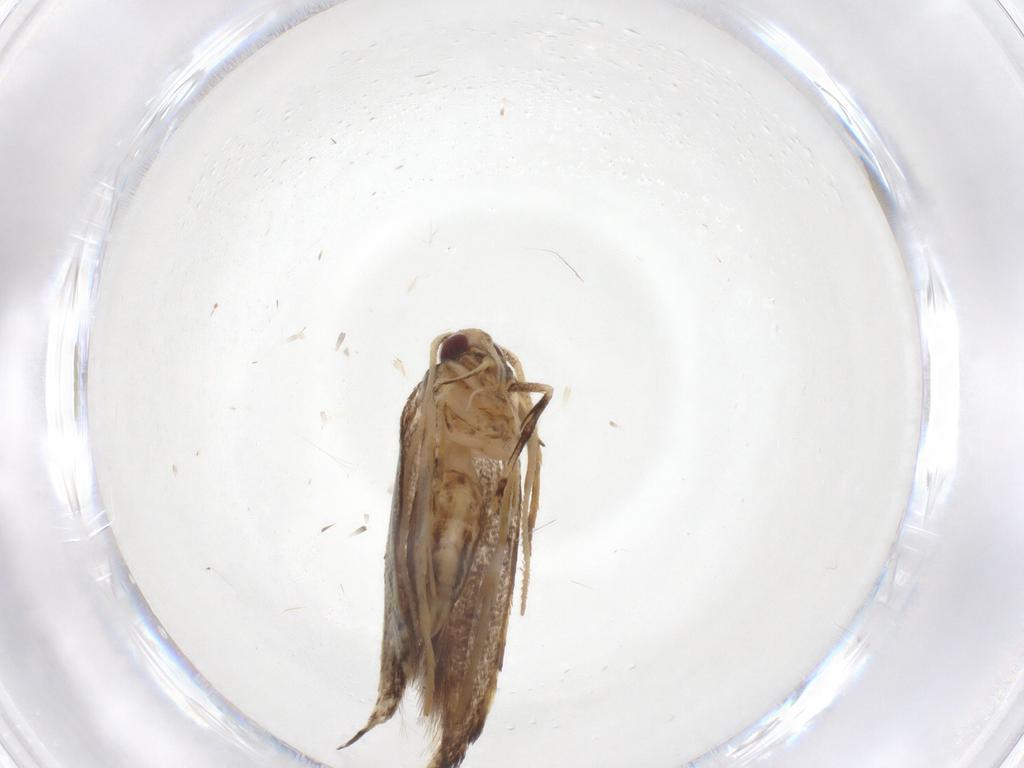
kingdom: Animalia
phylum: Arthropoda
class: Insecta
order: Lepidoptera
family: Cosmopterigidae
